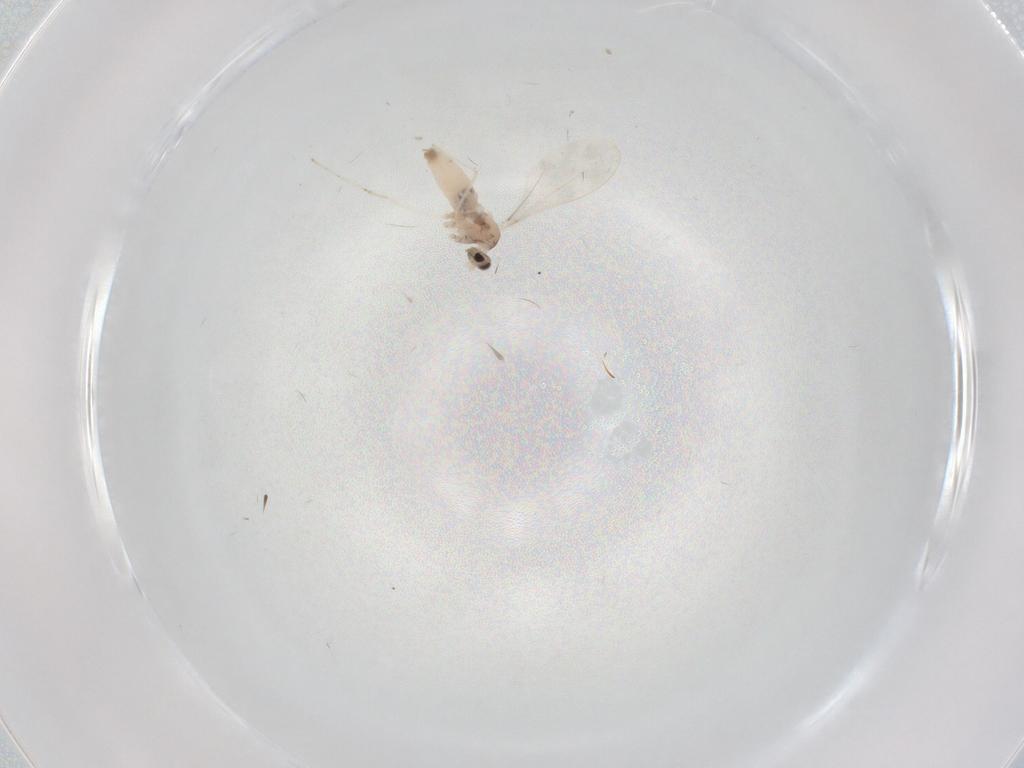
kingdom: Animalia
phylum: Arthropoda
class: Insecta
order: Diptera
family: Cecidomyiidae
